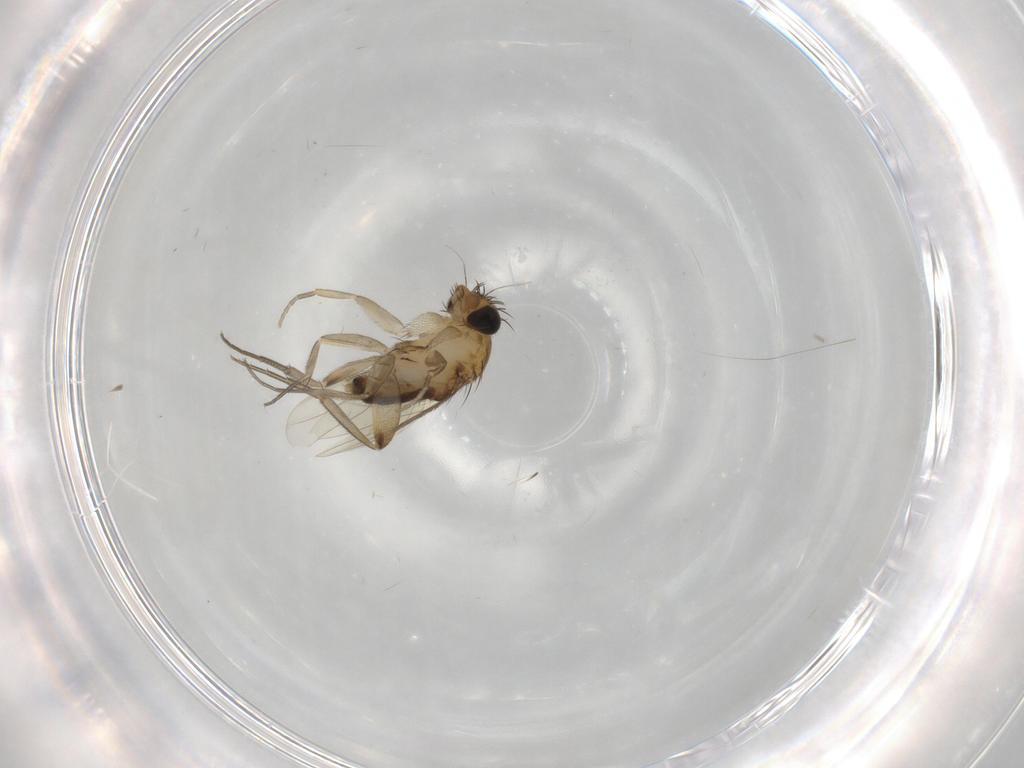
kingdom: Animalia
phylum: Arthropoda
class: Insecta
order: Diptera
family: Phoridae
